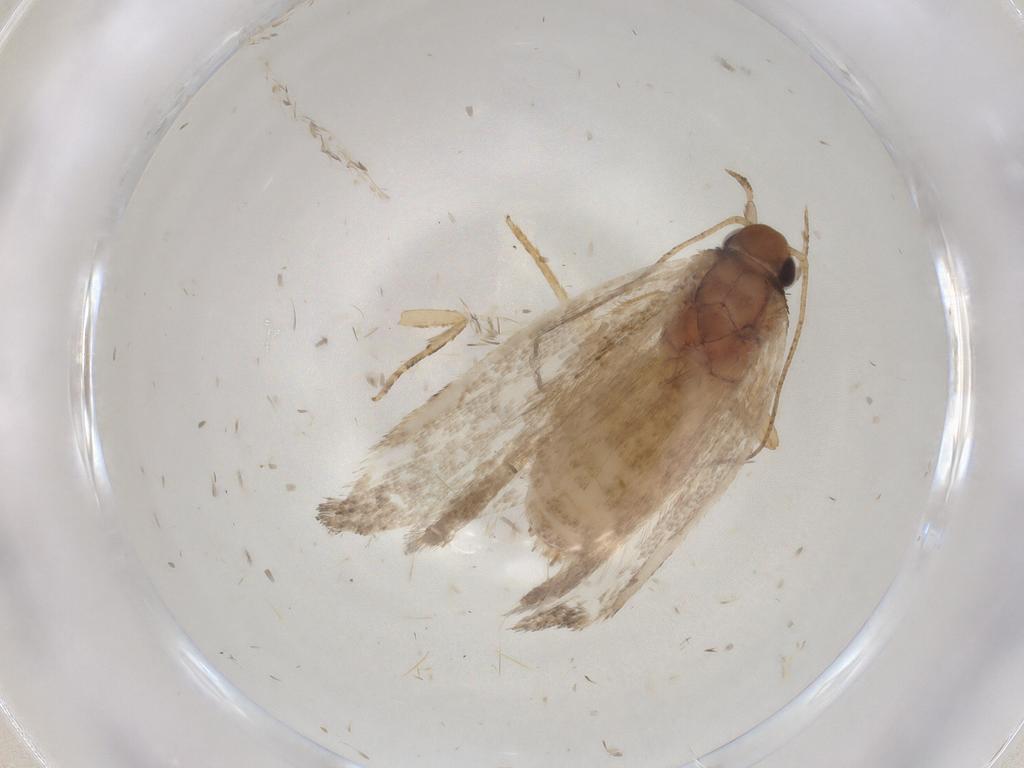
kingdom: Animalia
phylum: Arthropoda
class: Insecta
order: Lepidoptera
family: Gelechiidae
